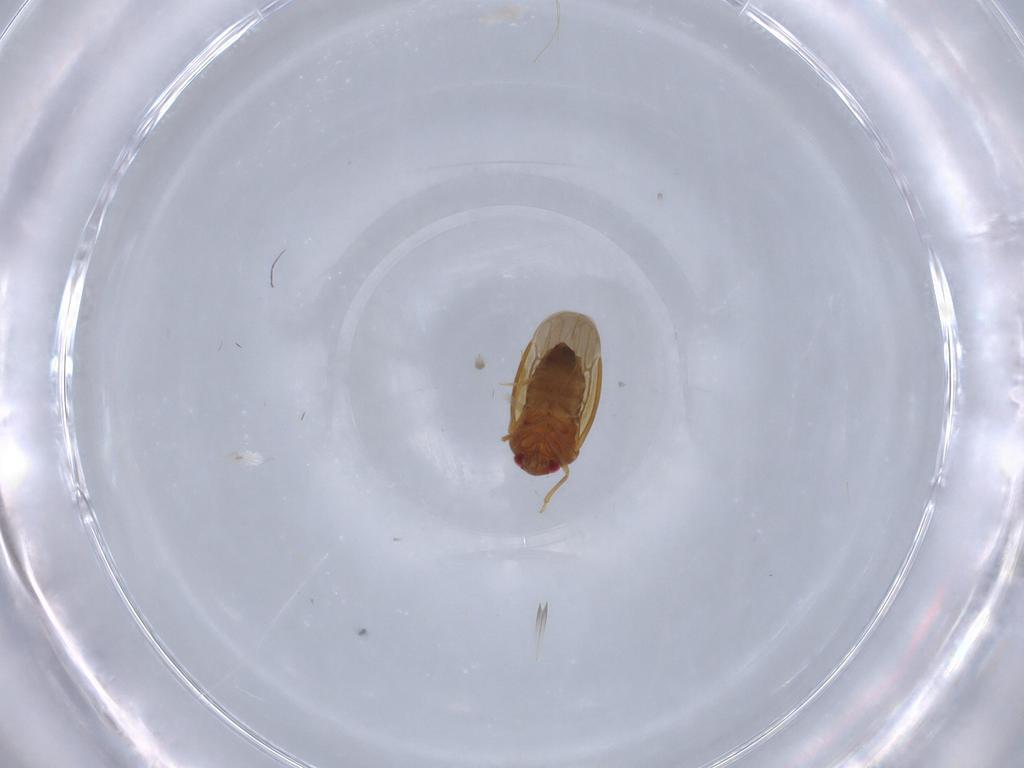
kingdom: Animalia
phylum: Arthropoda
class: Insecta
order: Hemiptera
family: Schizopteridae
